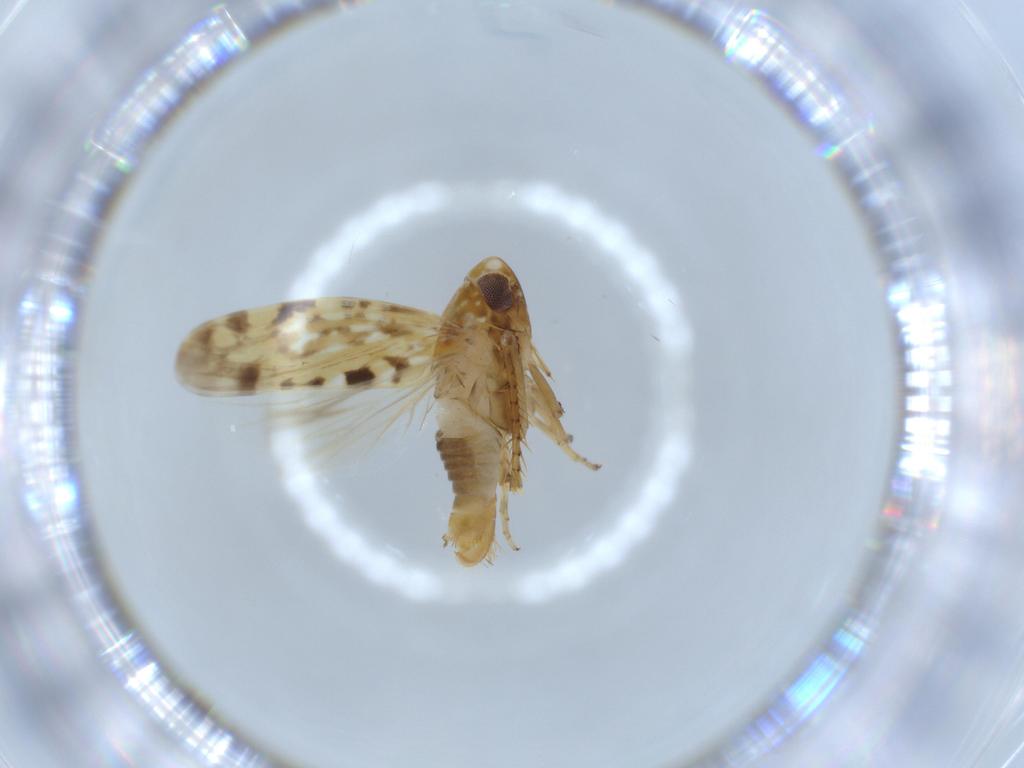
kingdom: Animalia
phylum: Arthropoda
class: Insecta
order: Hemiptera
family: Cicadellidae
